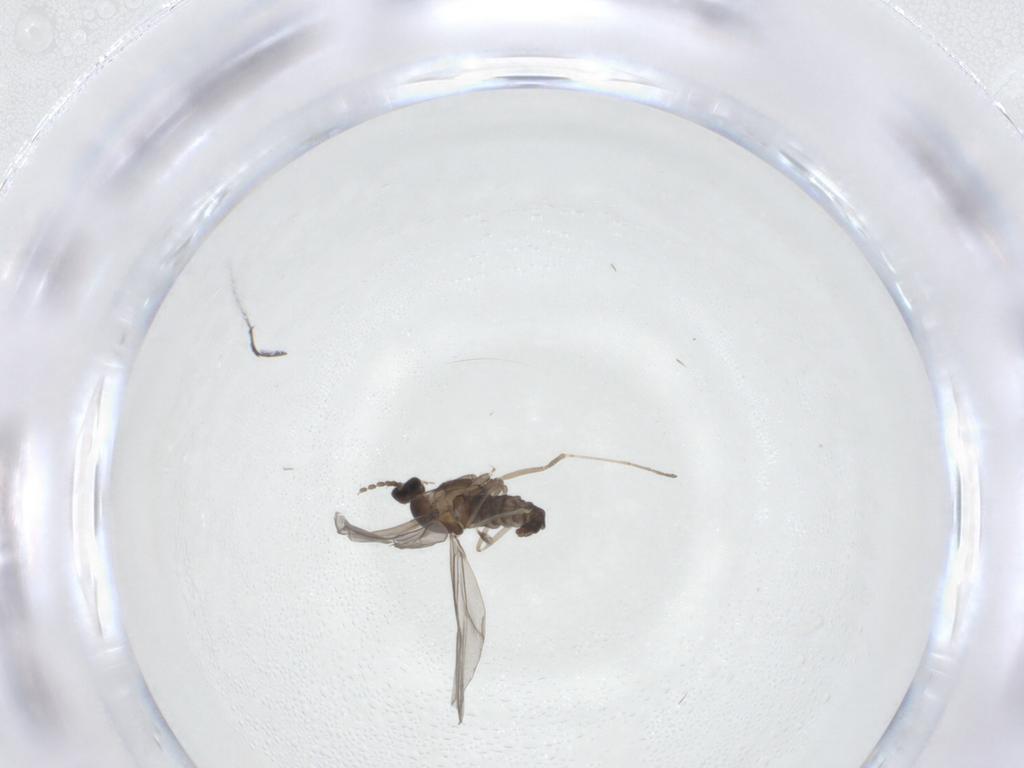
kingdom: Animalia
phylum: Arthropoda
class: Insecta
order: Diptera
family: Cecidomyiidae
